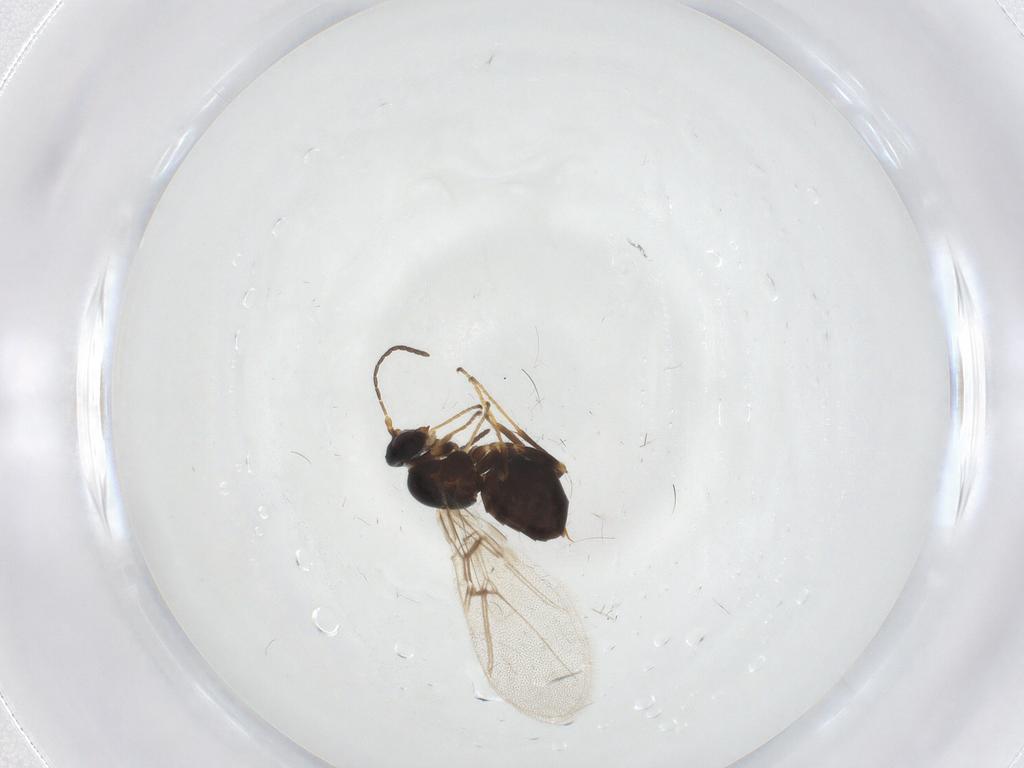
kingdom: Animalia
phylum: Arthropoda
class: Insecta
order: Hymenoptera
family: Cynipidae
